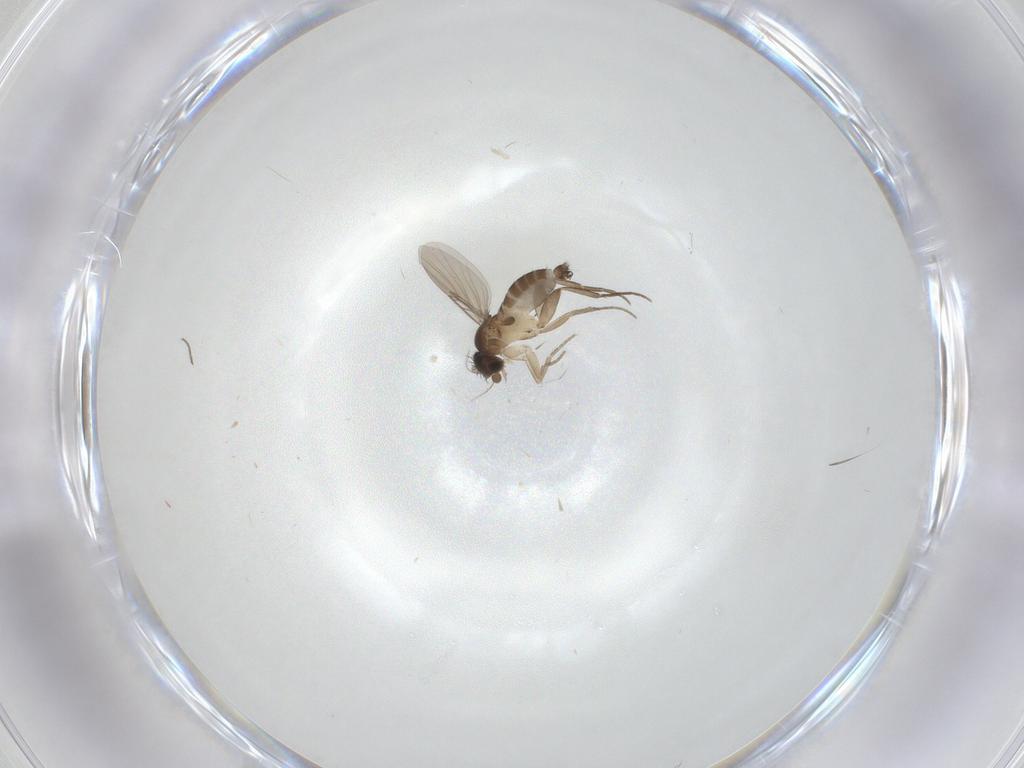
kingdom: Animalia
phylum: Arthropoda
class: Insecta
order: Diptera
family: Phoridae
